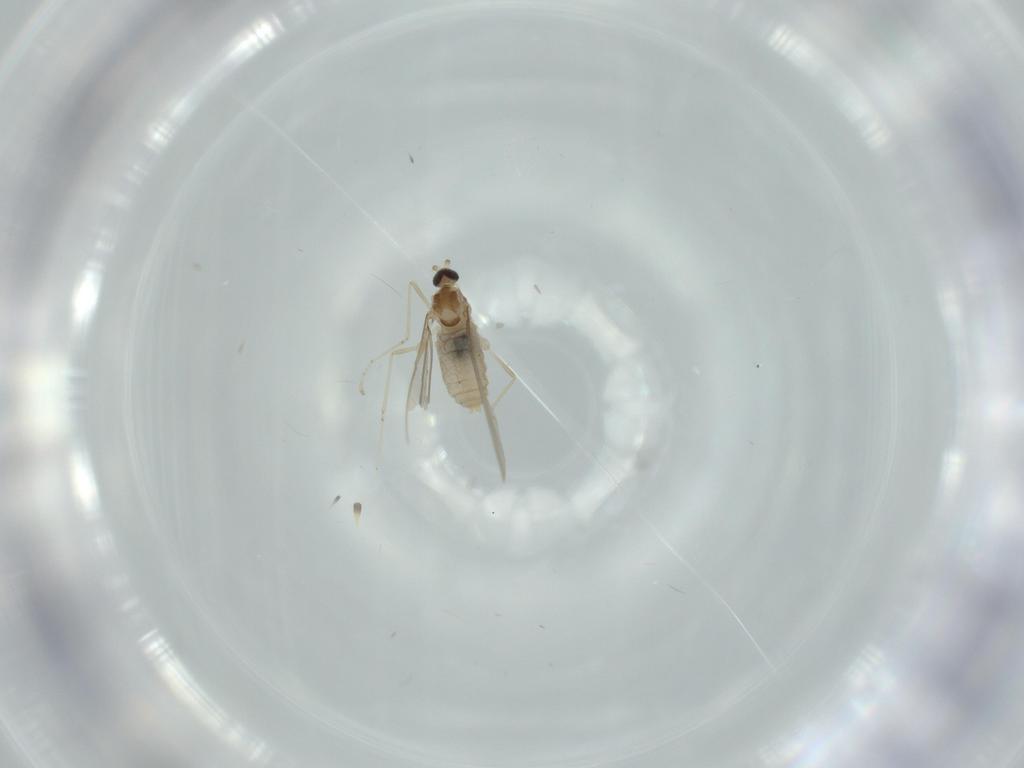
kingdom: Animalia
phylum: Arthropoda
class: Insecta
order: Diptera
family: Cecidomyiidae
